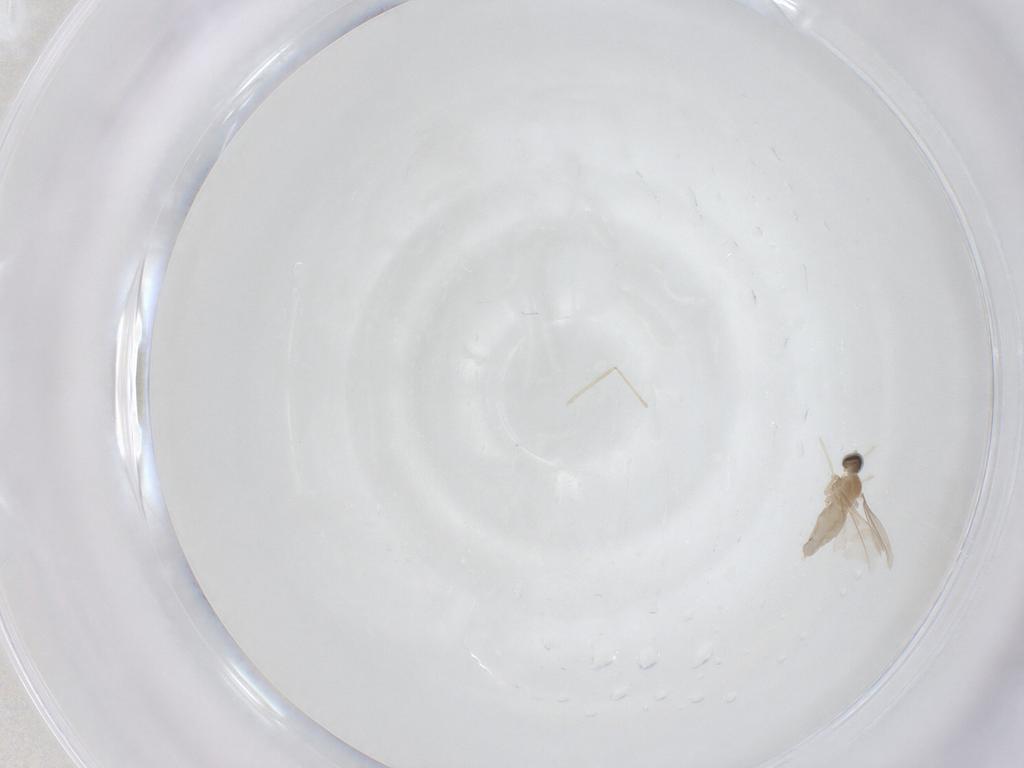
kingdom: Animalia
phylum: Arthropoda
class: Insecta
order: Diptera
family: Cecidomyiidae
